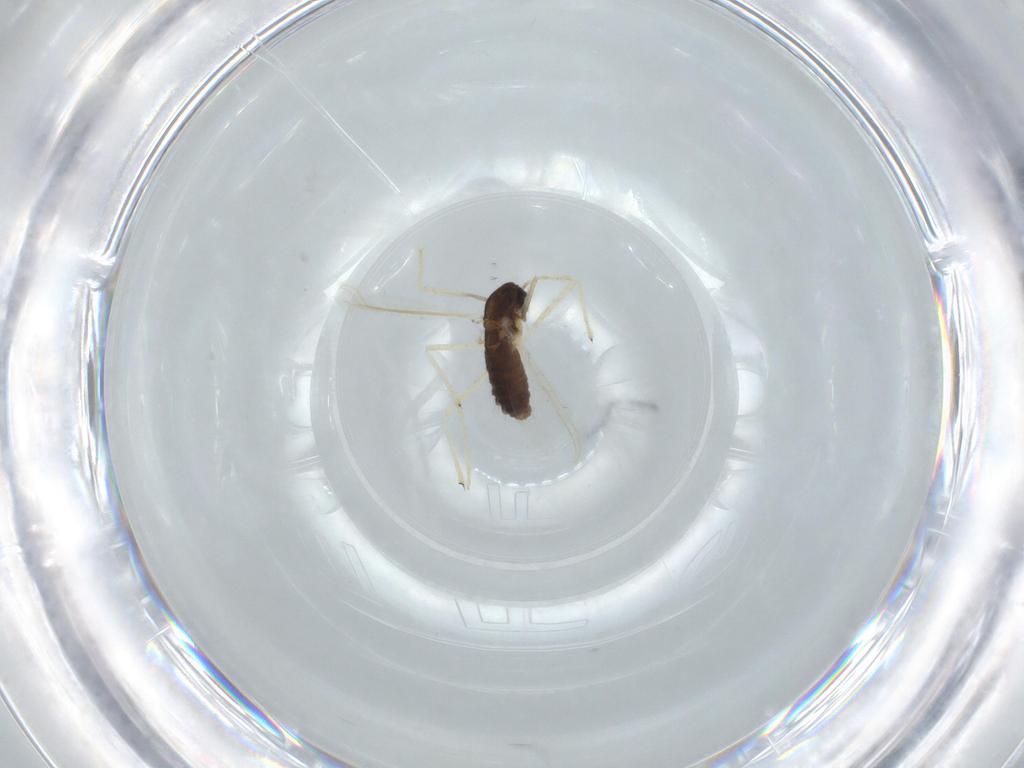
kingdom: Animalia
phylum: Arthropoda
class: Insecta
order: Diptera
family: Chironomidae
